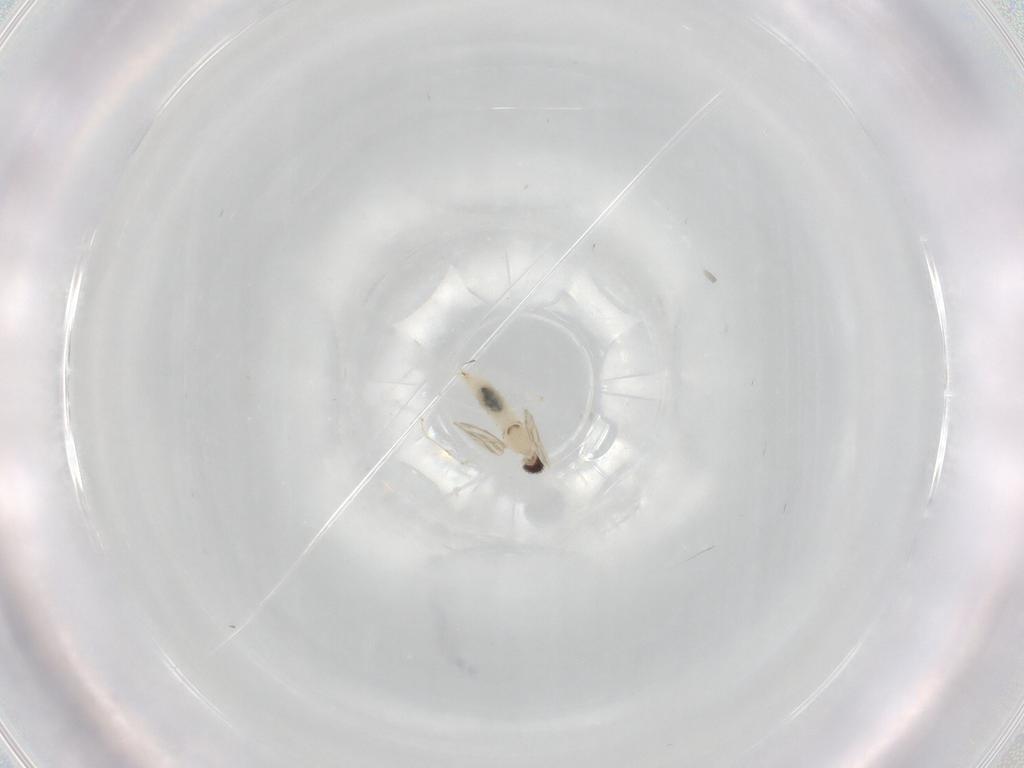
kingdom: Animalia
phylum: Arthropoda
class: Insecta
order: Diptera
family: Cecidomyiidae
